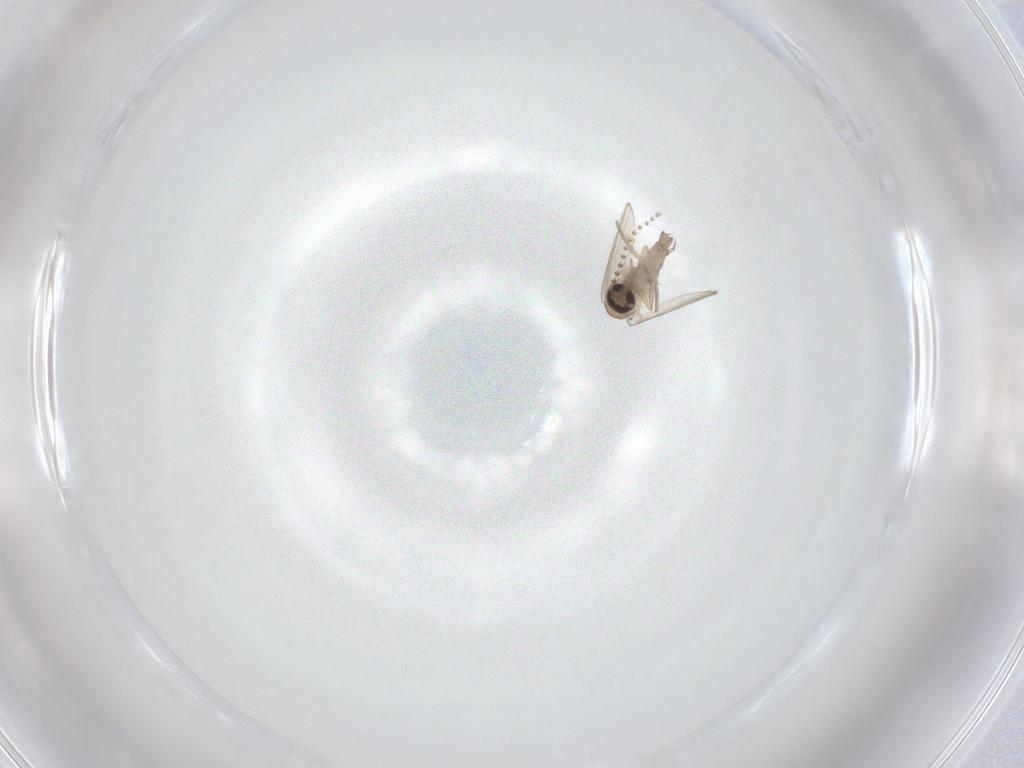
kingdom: Animalia
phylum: Arthropoda
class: Insecta
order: Diptera
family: Sciaridae
